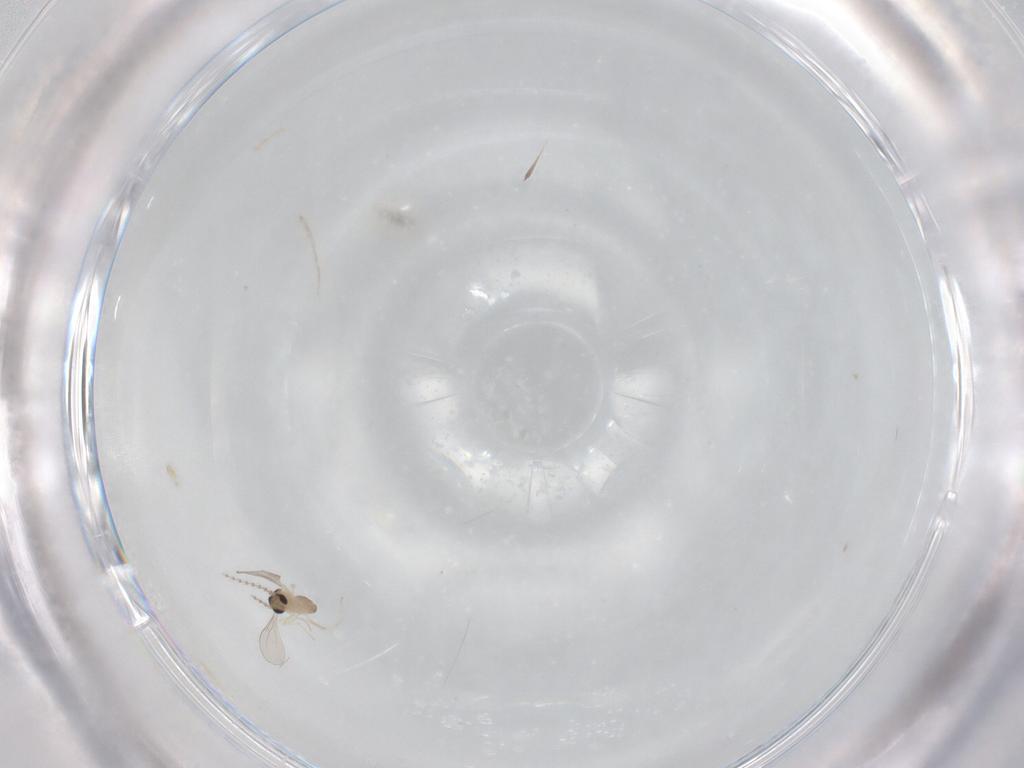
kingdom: Animalia
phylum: Arthropoda
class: Insecta
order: Diptera
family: Cecidomyiidae
